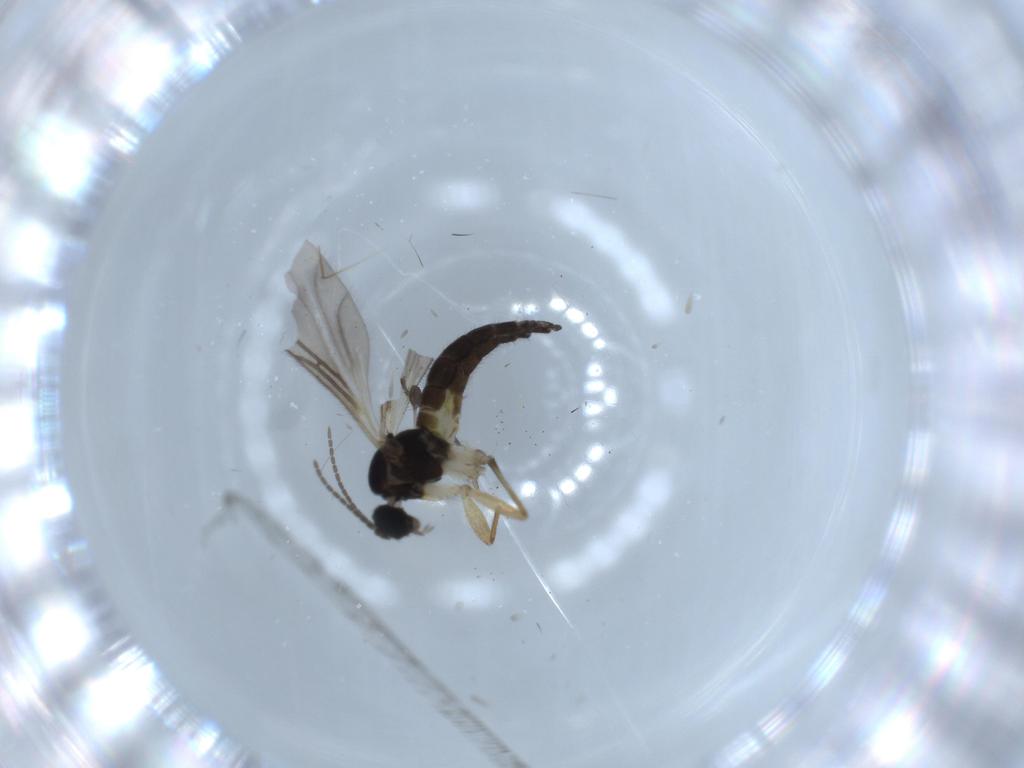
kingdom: Animalia
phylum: Arthropoda
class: Insecta
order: Diptera
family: Sciaridae
